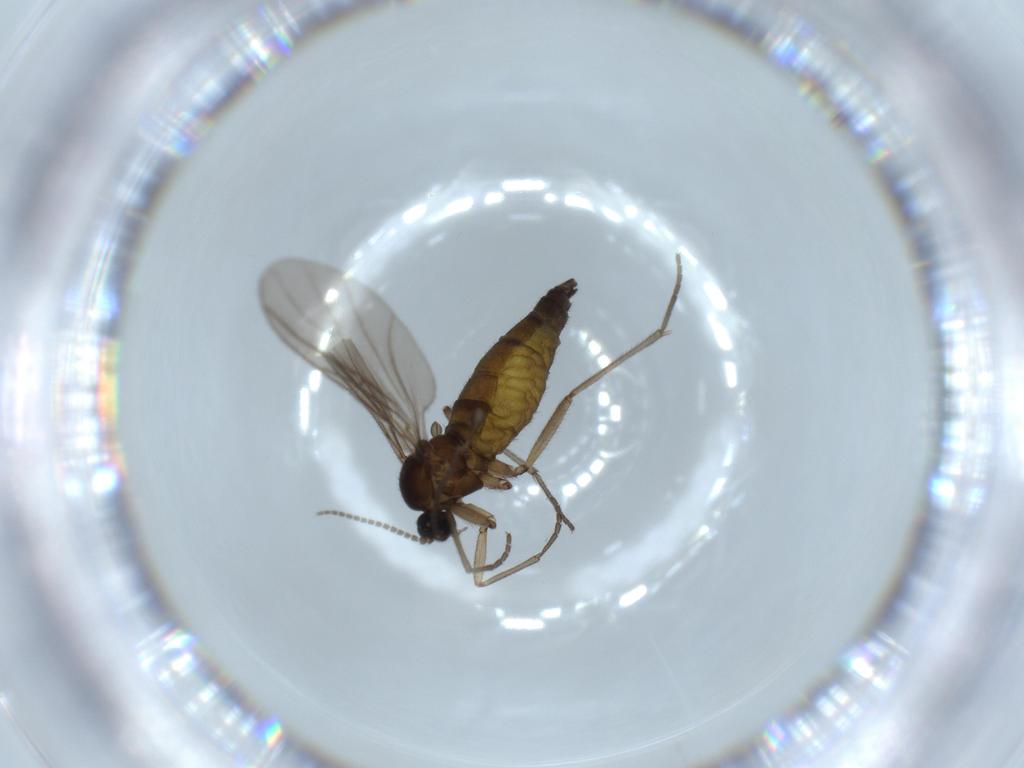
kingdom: Animalia
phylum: Arthropoda
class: Insecta
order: Diptera
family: Sciaridae
